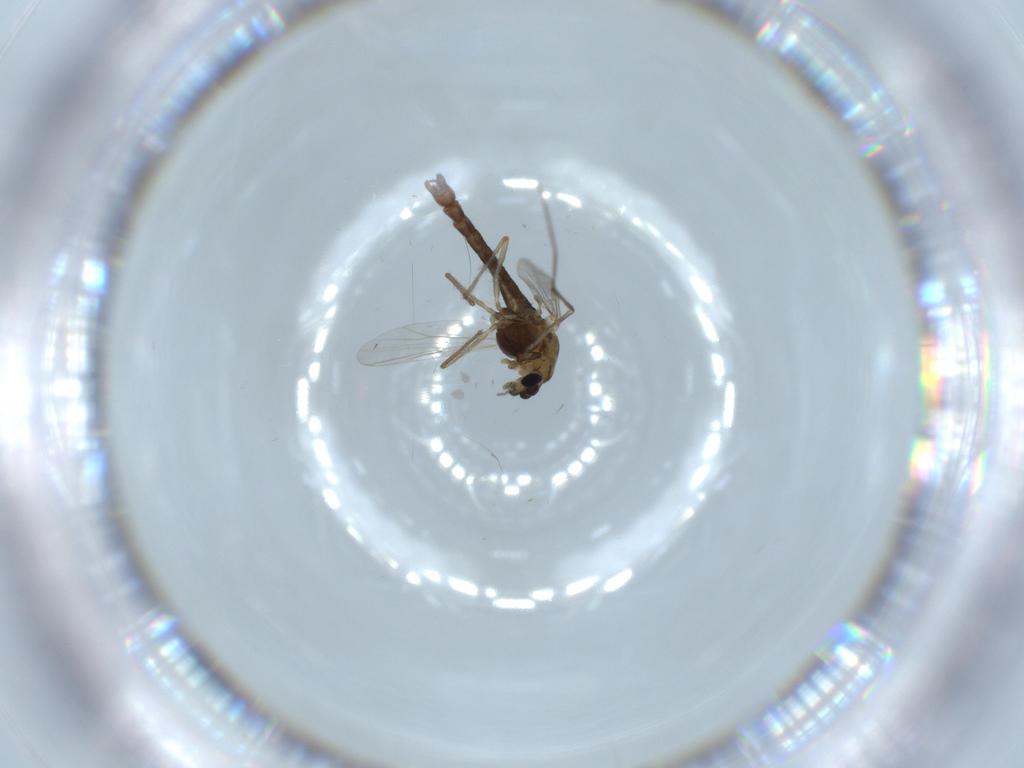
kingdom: Animalia
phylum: Arthropoda
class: Insecta
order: Diptera
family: Chironomidae
